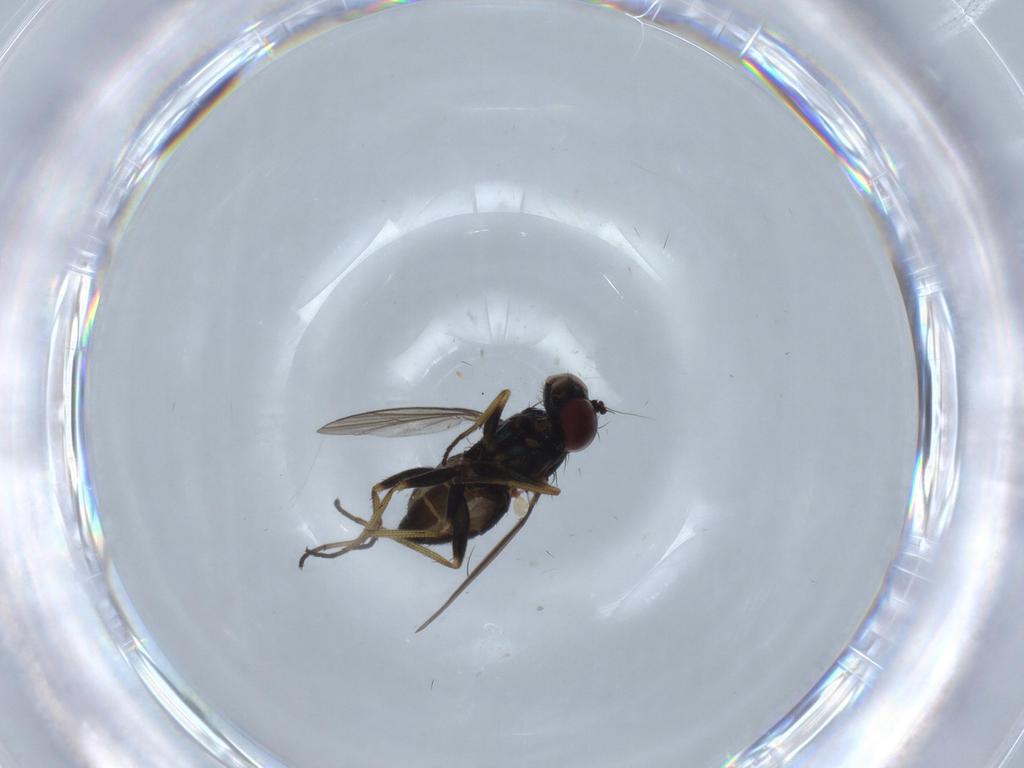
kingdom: Animalia
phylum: Arthropoda
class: Insecta
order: Diptera
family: Dolichopodidae
